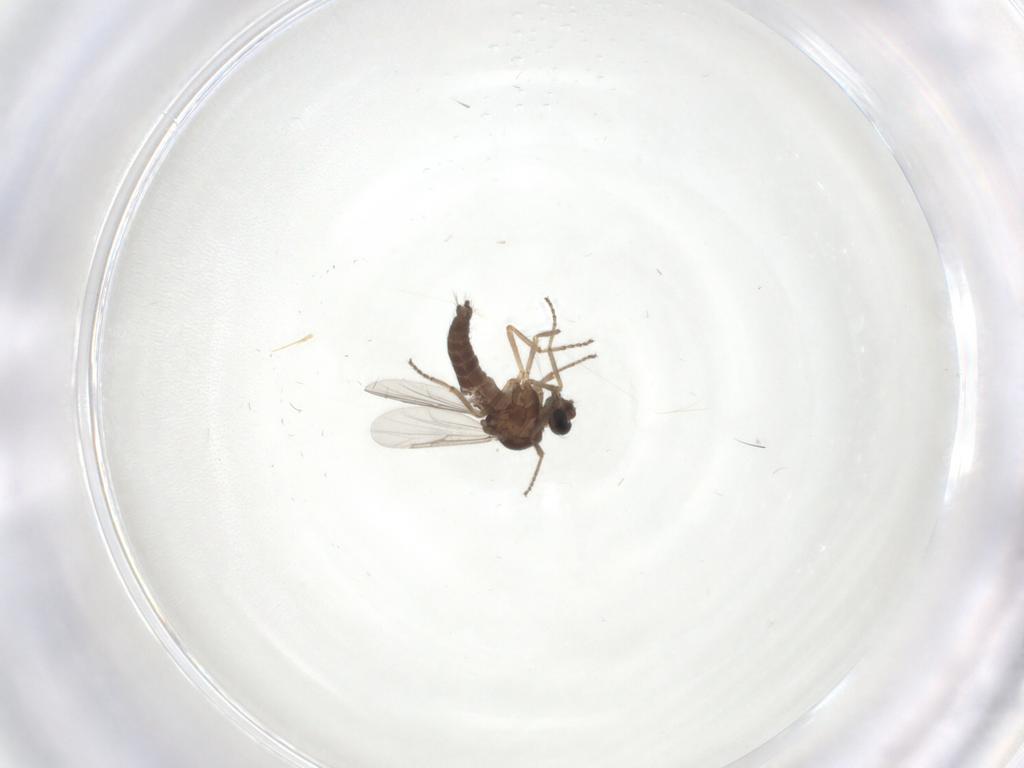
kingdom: Animalia
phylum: Arthropoda
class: Insecta
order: Diptera
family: Ceratopogonidae
